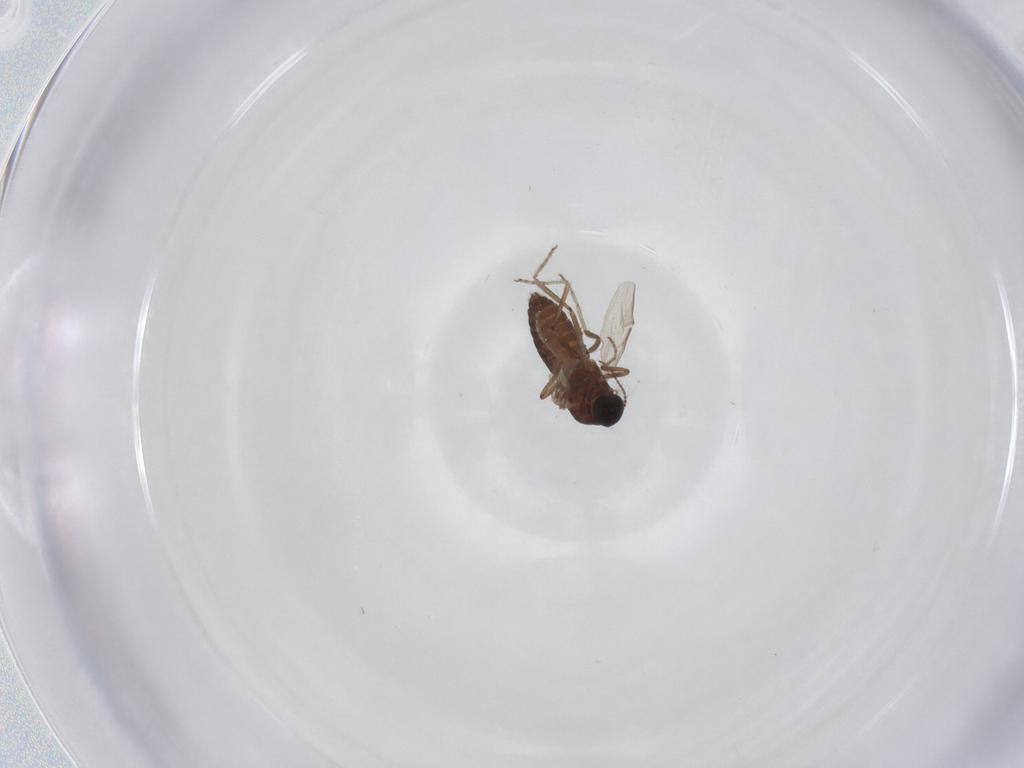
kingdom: Animalia
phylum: Arthropoda
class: Insecta
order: Diptera
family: Ceratopogonidae
